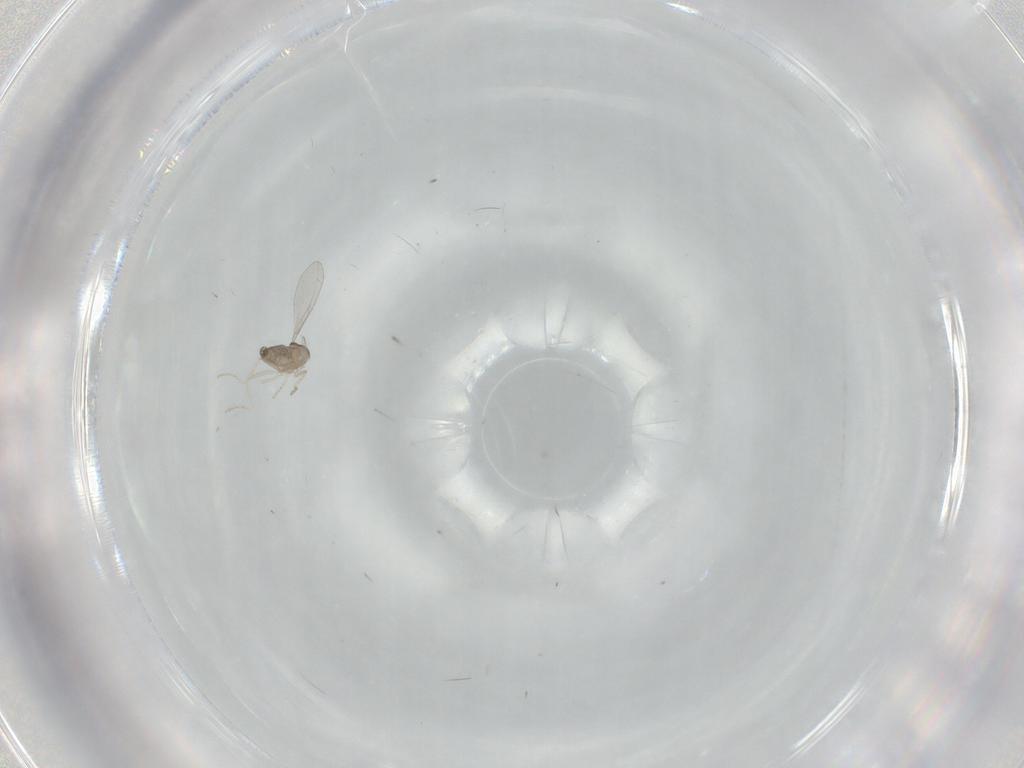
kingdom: Animalia
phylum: Arthropoda
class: Insecta
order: Diptera
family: Cecidomyiidae
